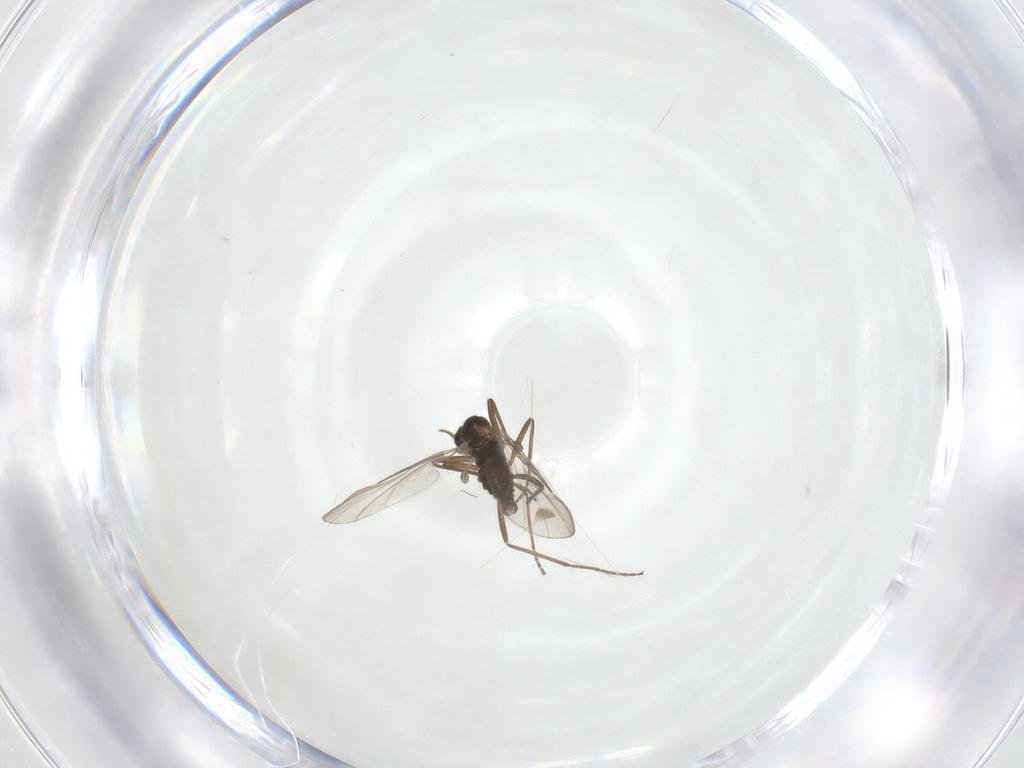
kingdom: Animalia
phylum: Arthropoda
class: Insecta
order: Diptera
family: Cecidomyiidae
